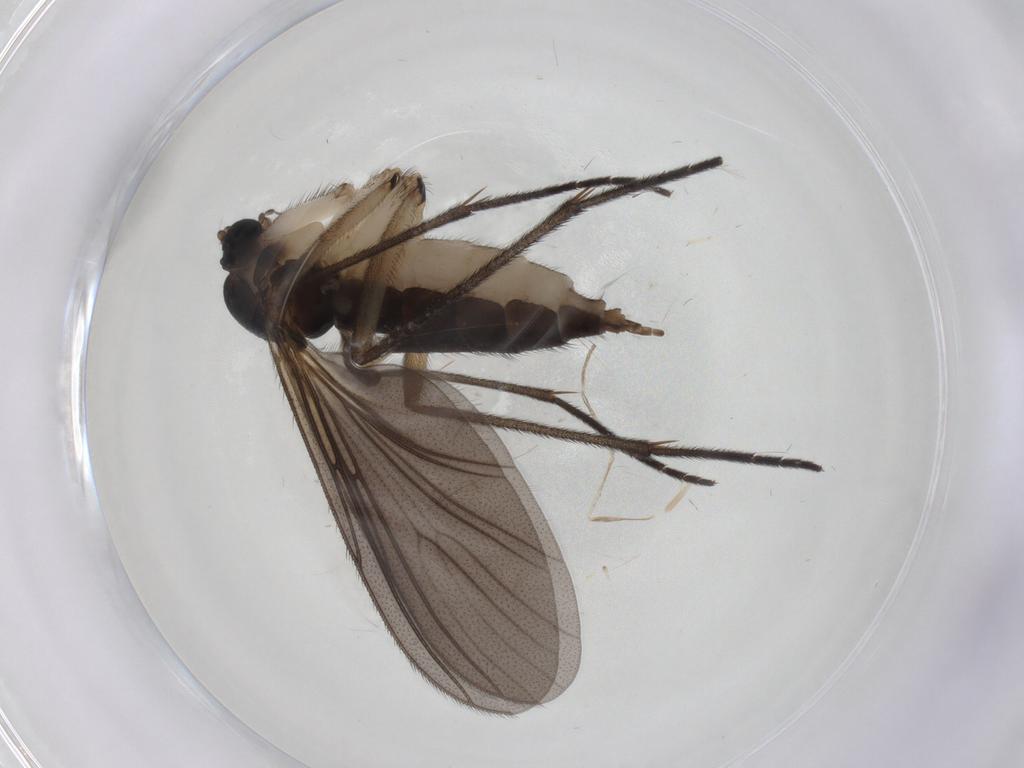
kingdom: Animalia
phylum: Arthropoda
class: Insecta
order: Diptera
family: Sciaridae
